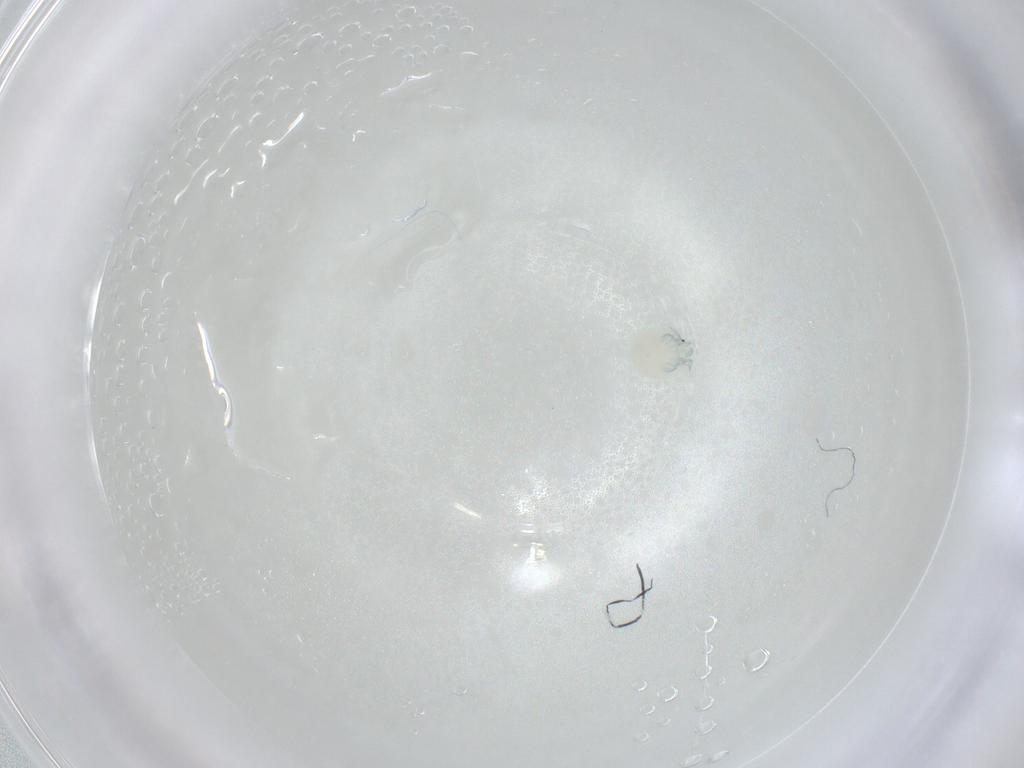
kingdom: Animalia
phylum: Arthropoda
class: Arachnida
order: Trombidiformes
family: Arrenuridae
